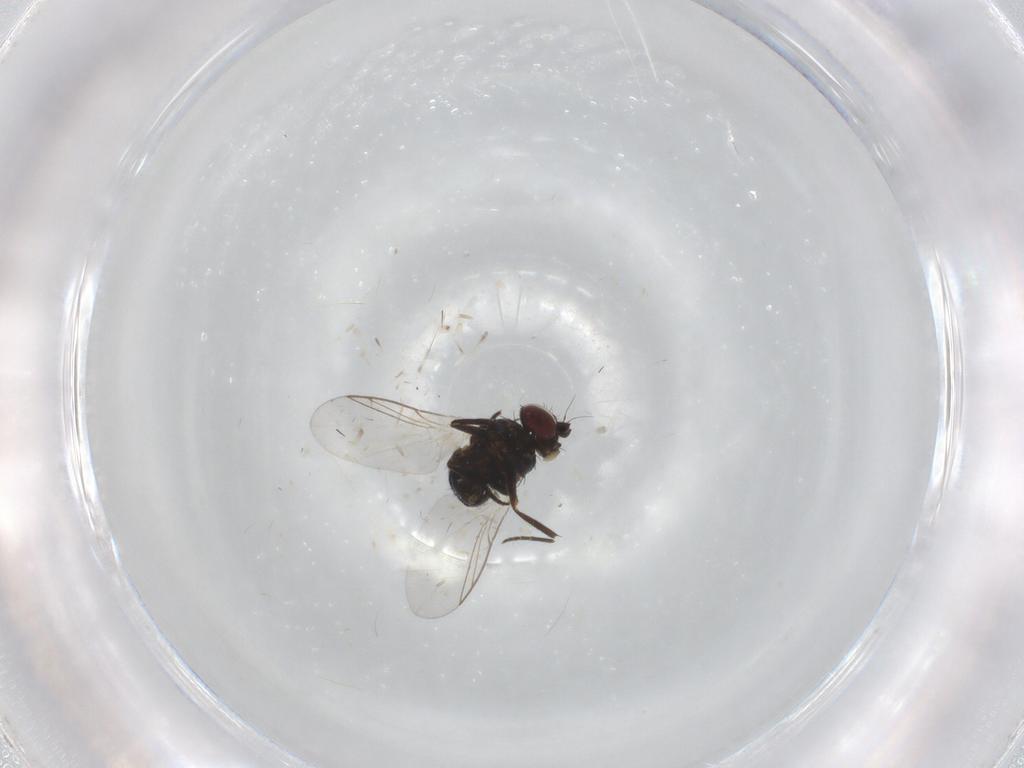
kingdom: Animalia
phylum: Arthropoda
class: Insecta
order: Diptera
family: Agromyzidae
